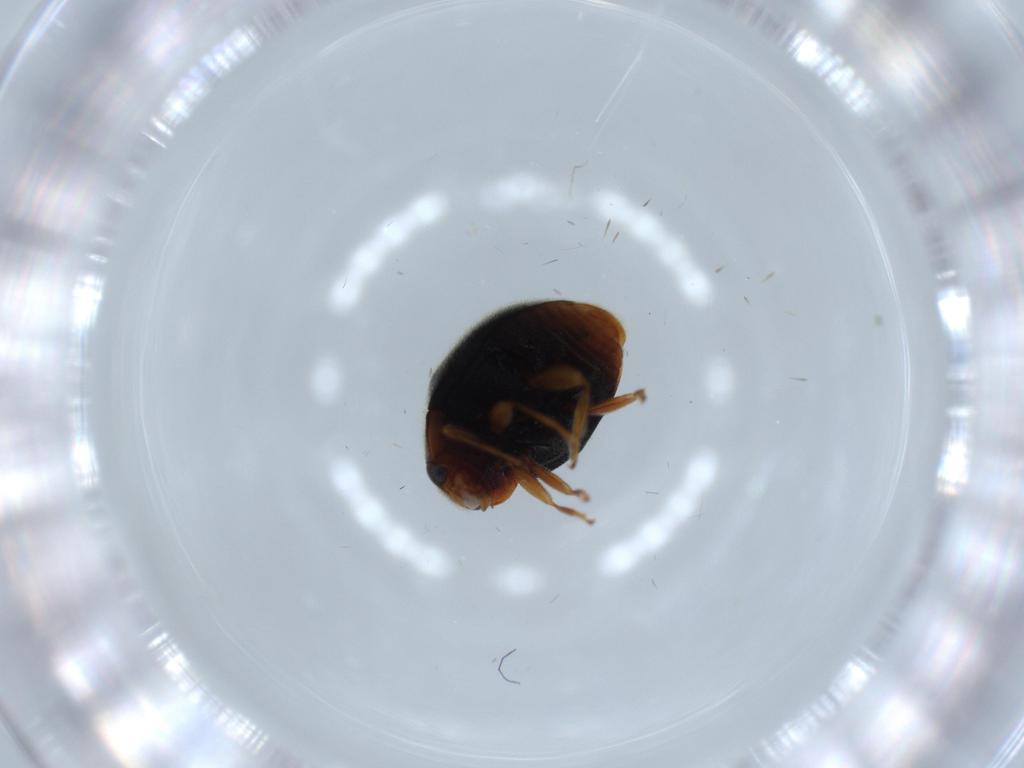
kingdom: Animalia
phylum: Arthropoda
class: Insecta
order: Coleoptera
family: Coccinellidae
